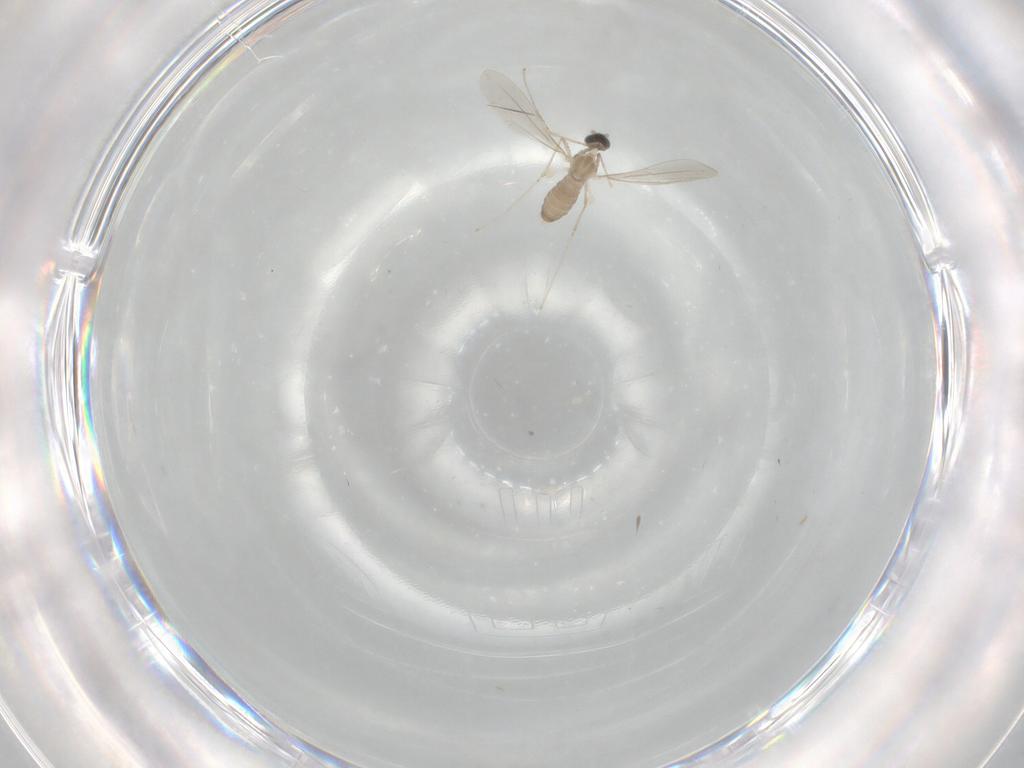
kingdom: Animalia
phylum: Arthropoda
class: Insecta
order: Diptera
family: Cecidomyiidae
